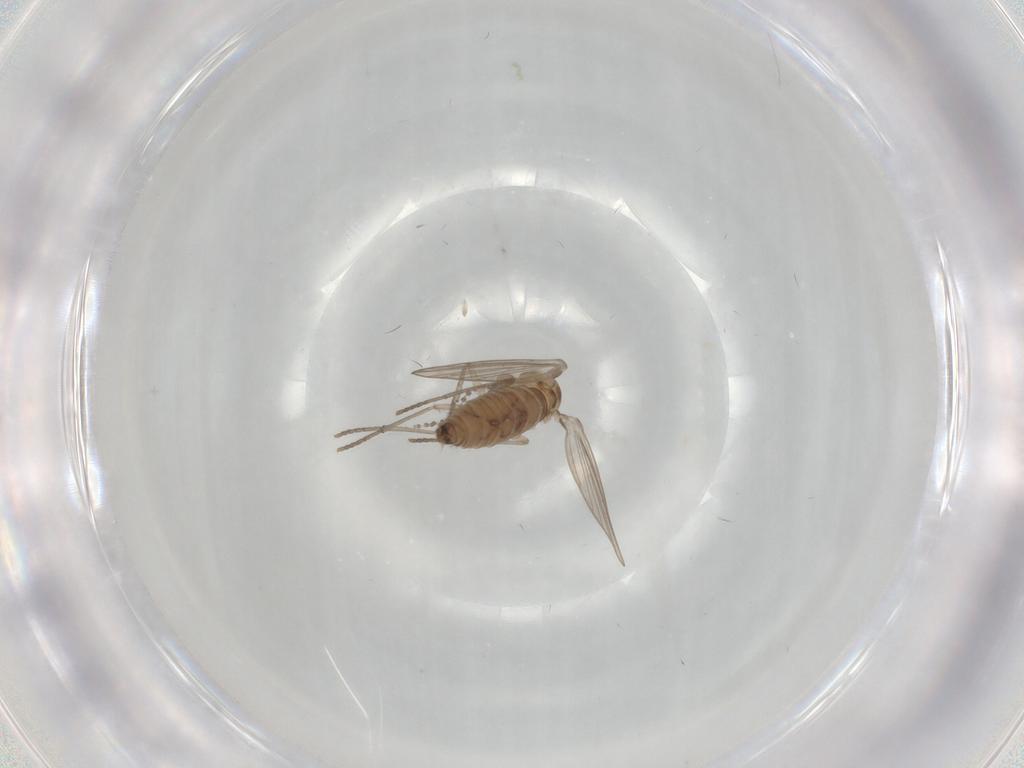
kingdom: Animalia
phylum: Arthropoda
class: Insecta
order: Diptera
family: Psychodidae
